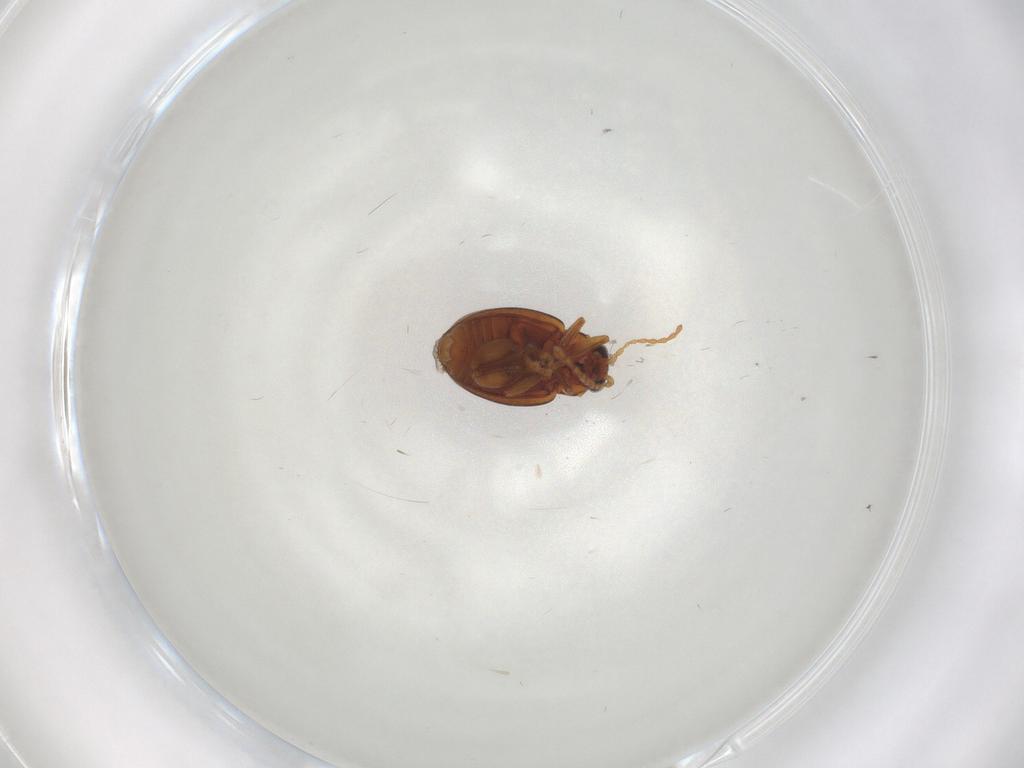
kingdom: Animalia
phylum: Arthropoda
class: Insecta
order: Coleoptera
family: Chrysomelidae
